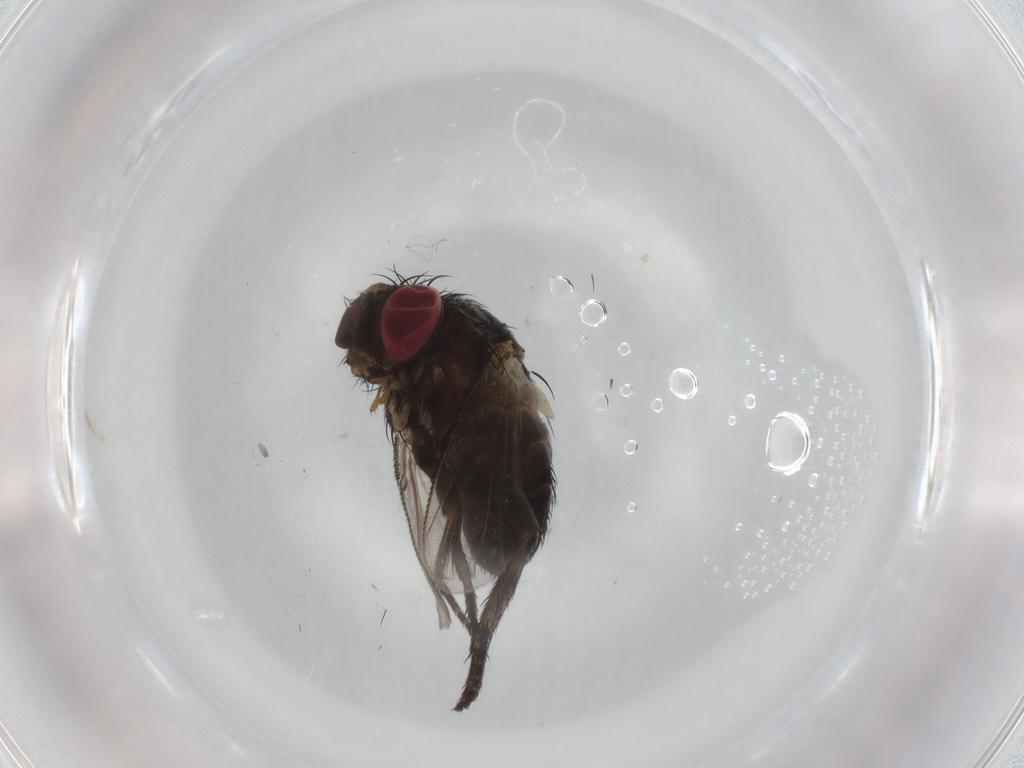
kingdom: Animalia
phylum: Arthropoda
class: Insecta
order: Diptera
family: Tachinidae
